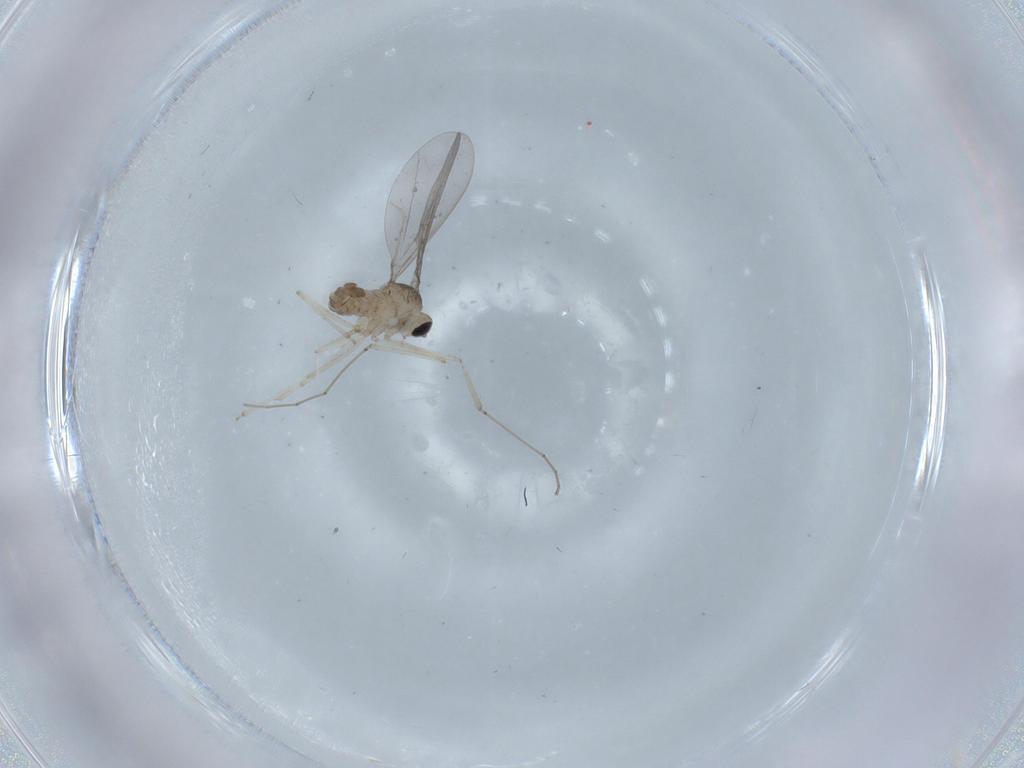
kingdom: Animalia
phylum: Arthropoda
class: Insecta
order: Diptera
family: Cecidomyiidae
